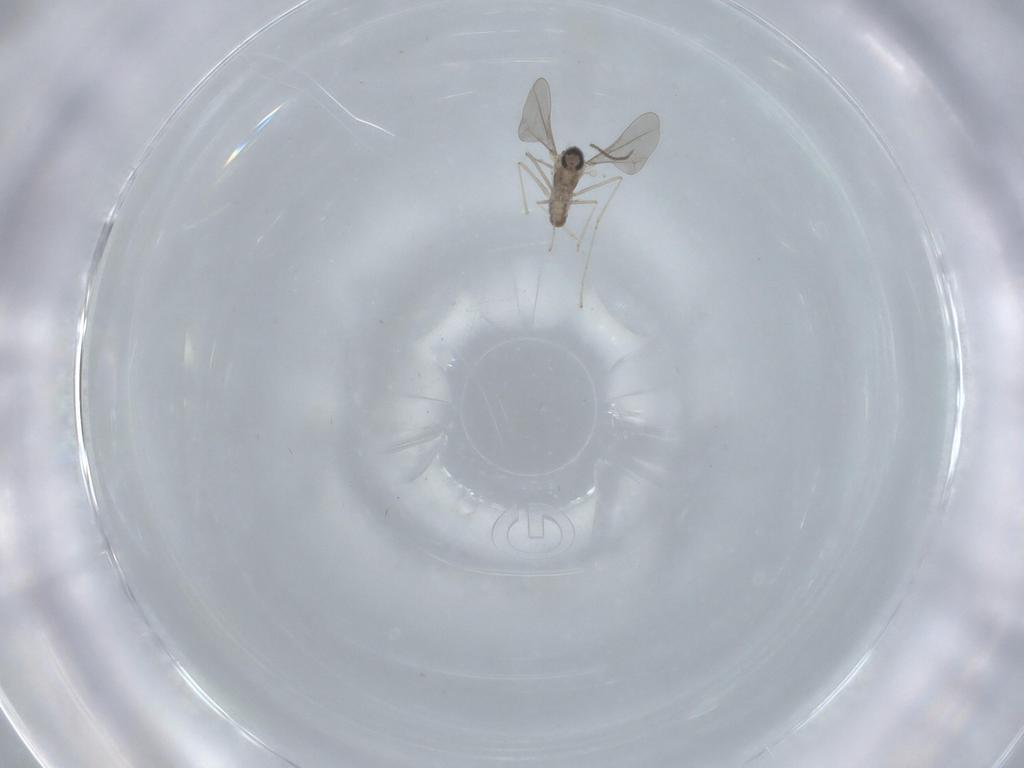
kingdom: Animalia
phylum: Arthropoda
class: Insecta
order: Diptera
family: Cecidomyiidae
